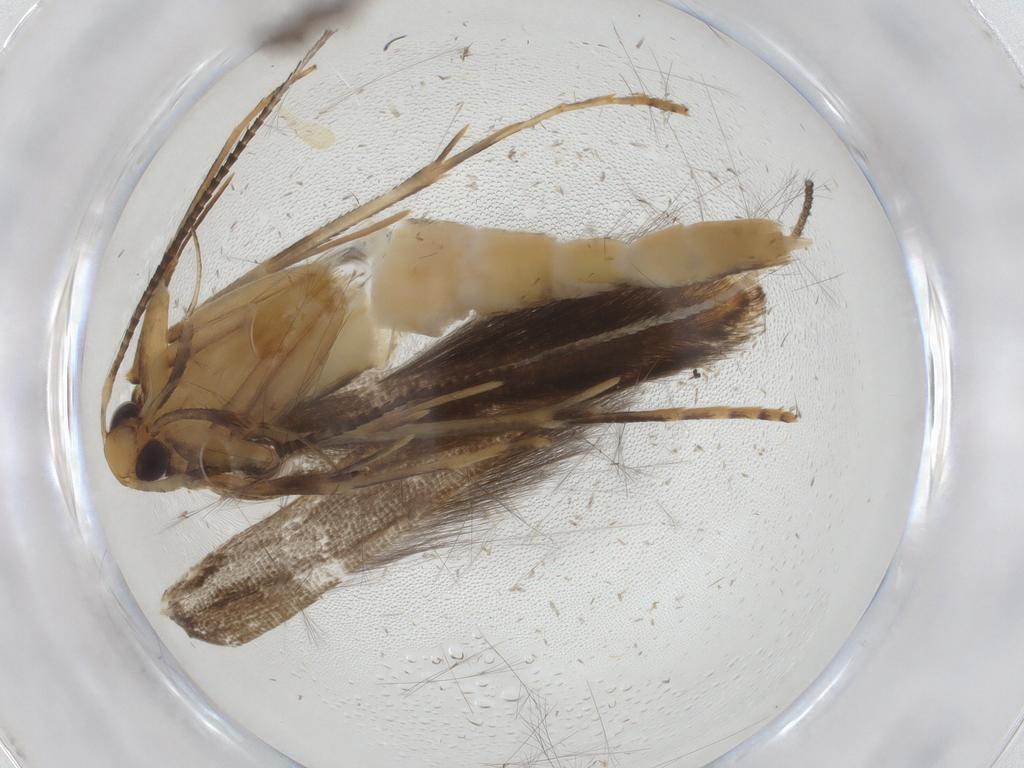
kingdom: Animalia
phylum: Arthropoda
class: Insecta
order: Lepidoptera
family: Pterolonchidae
